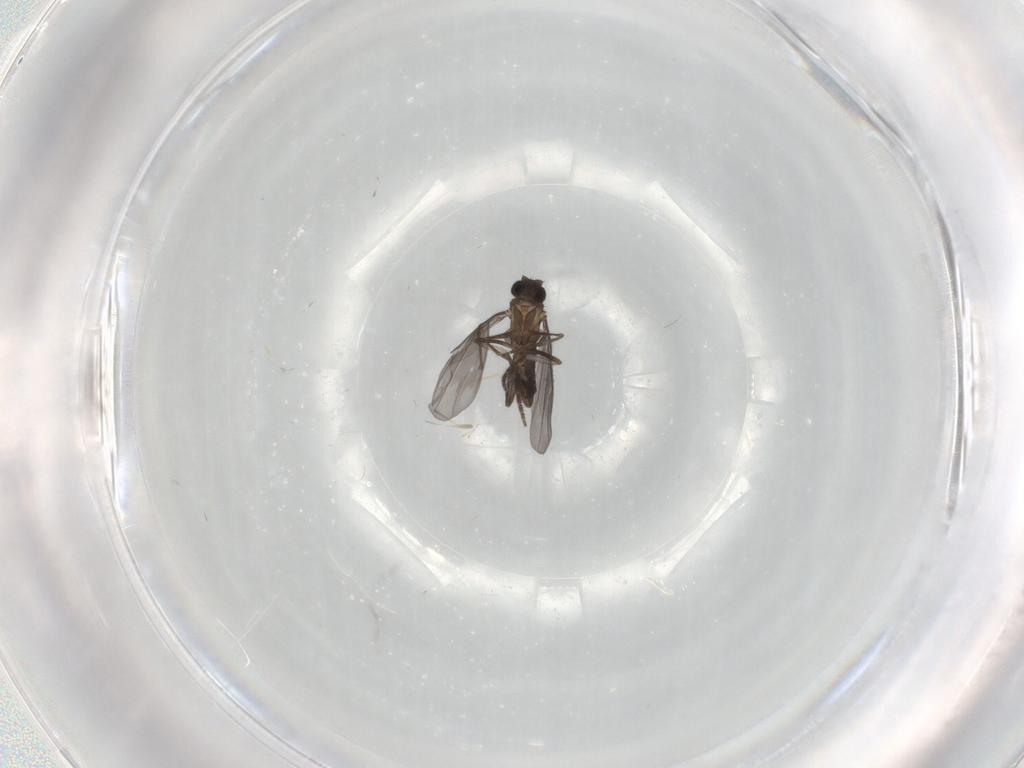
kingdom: Animalia
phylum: Arthropoda
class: Insecta
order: Diptera
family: Phoridae
